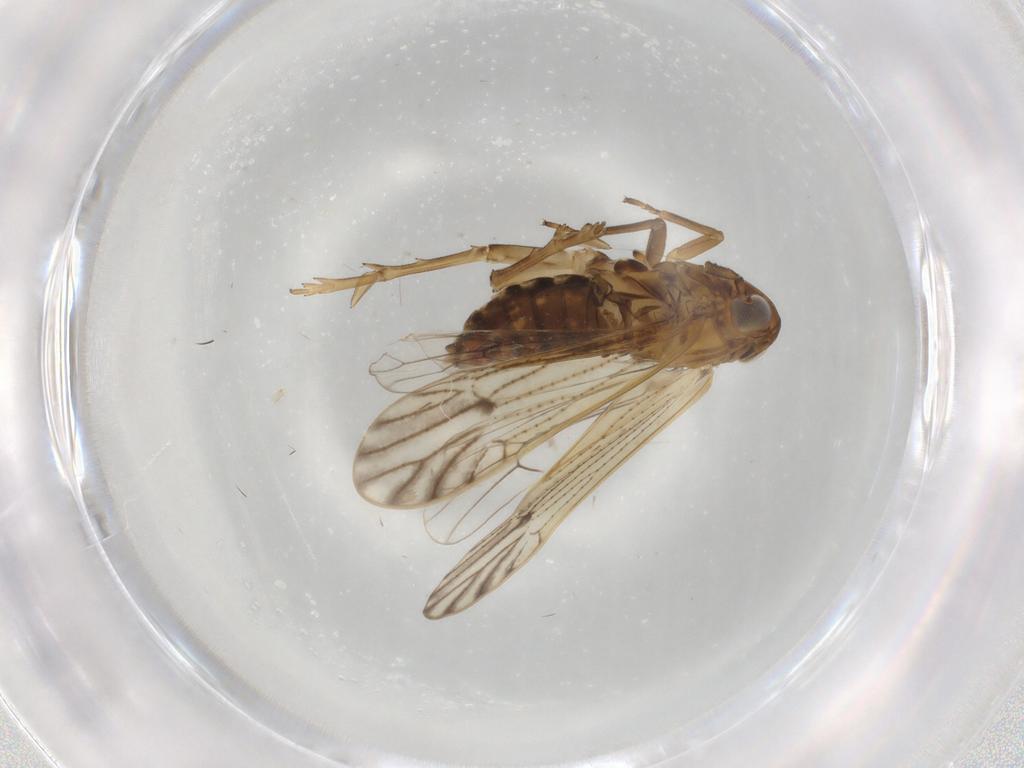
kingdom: Animalia
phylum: Arthropoda
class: Insecta
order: Hemiptera
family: Delphacidae
